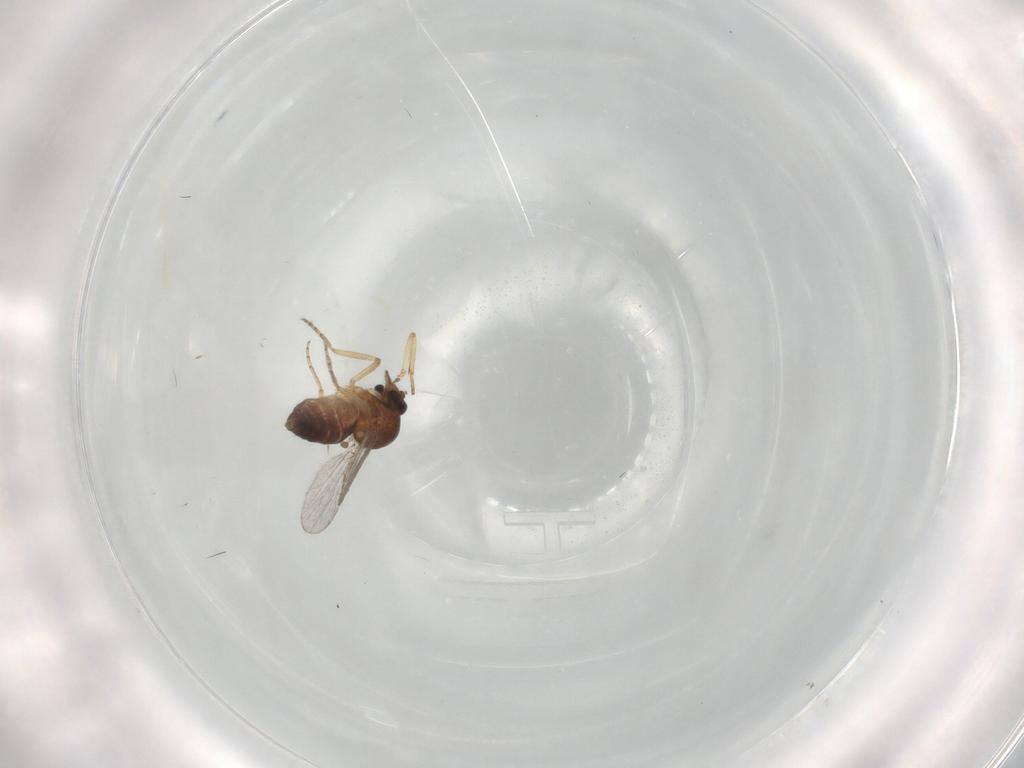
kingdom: Animalia
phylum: Arthropoda
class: Insecta
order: Diptera
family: Ceratopogonidae
